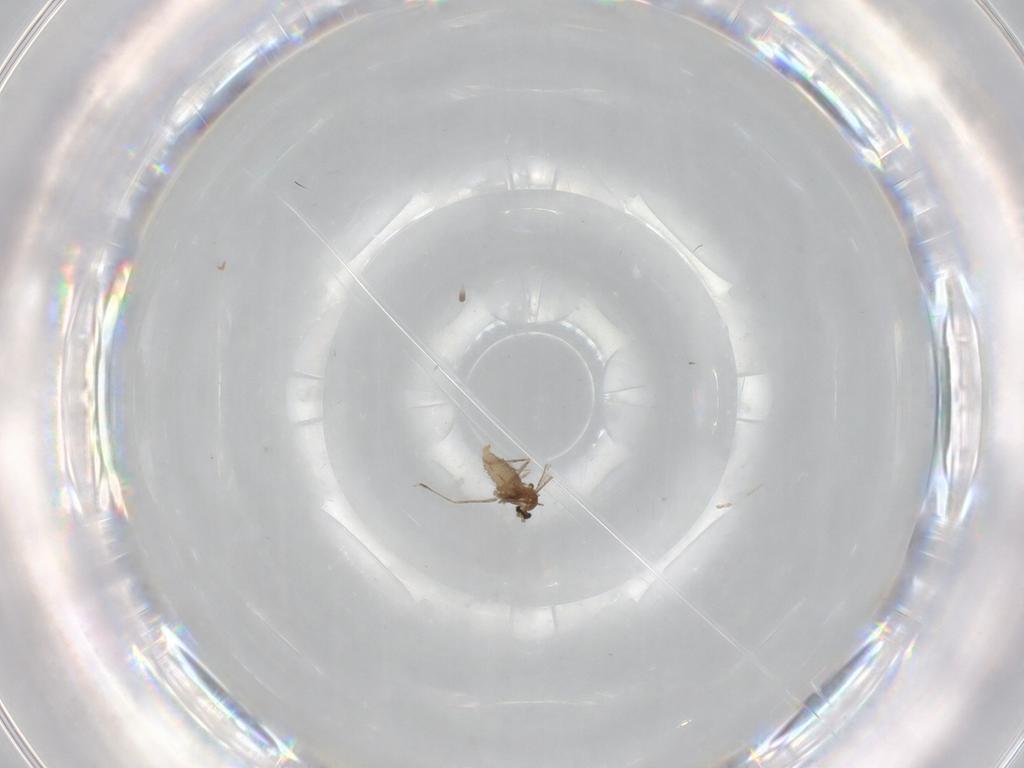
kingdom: Animalia
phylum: Arthropoda
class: Insecta
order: Diptera
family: Cecidomyiidae
